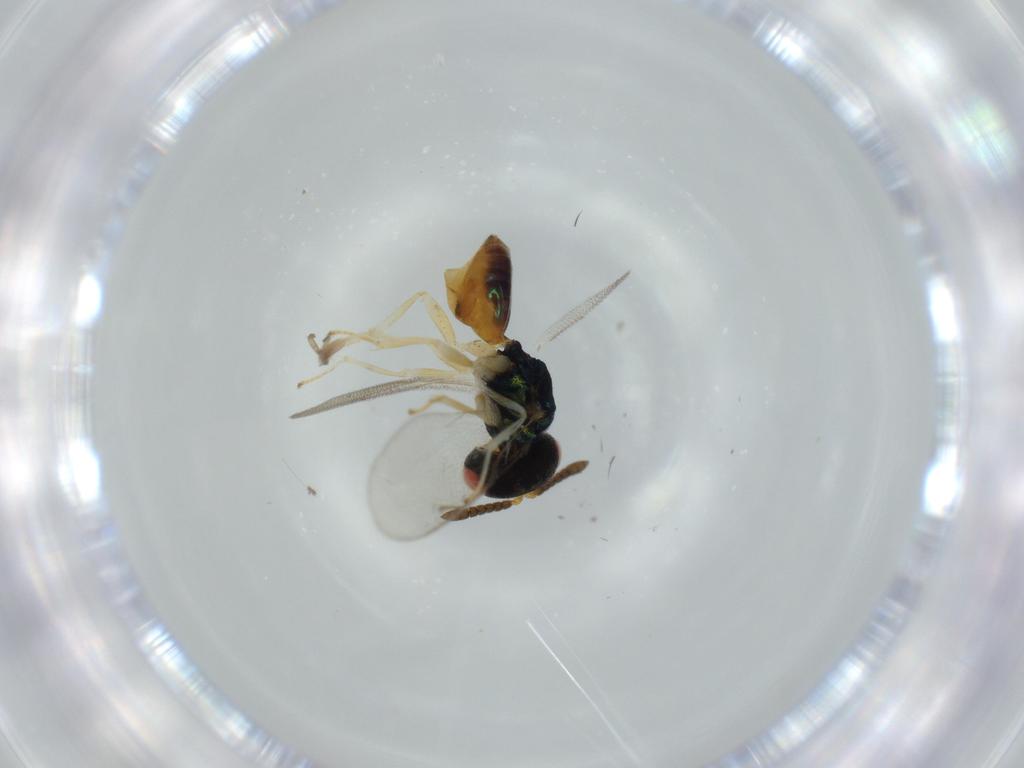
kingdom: Animalia
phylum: Arthropoda
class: Insecta
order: Hymenoptera
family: Pteromalidae
